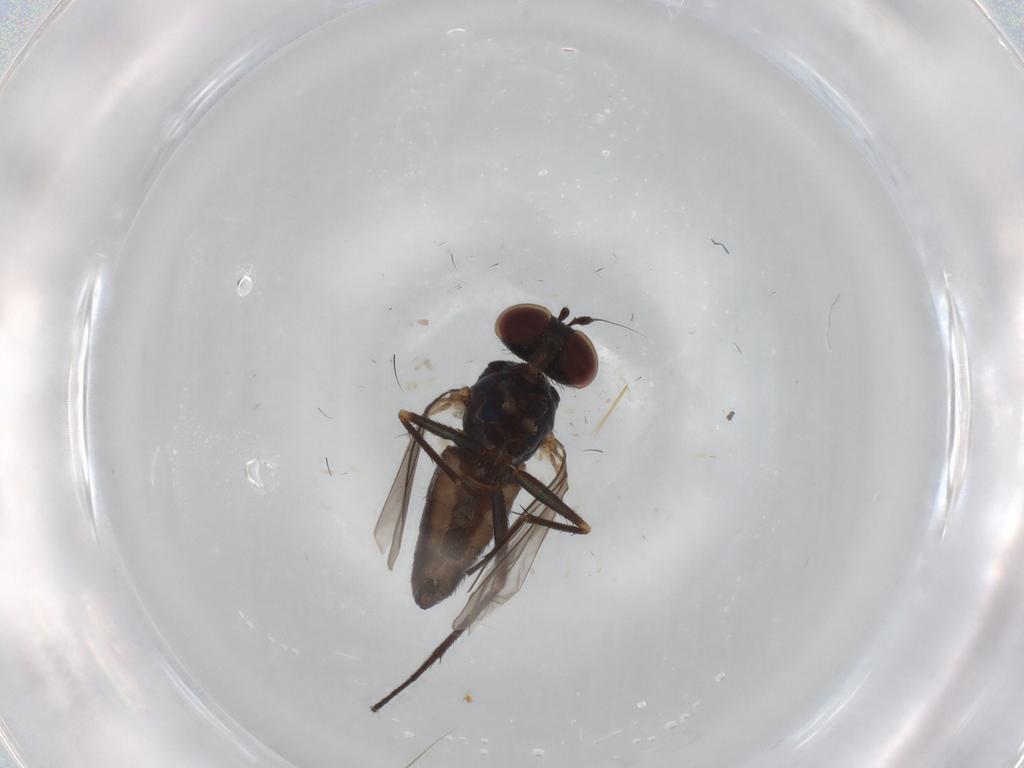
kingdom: Animalia
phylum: Arthropoda
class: Insecta
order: Diptera
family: Dolichopodidae
